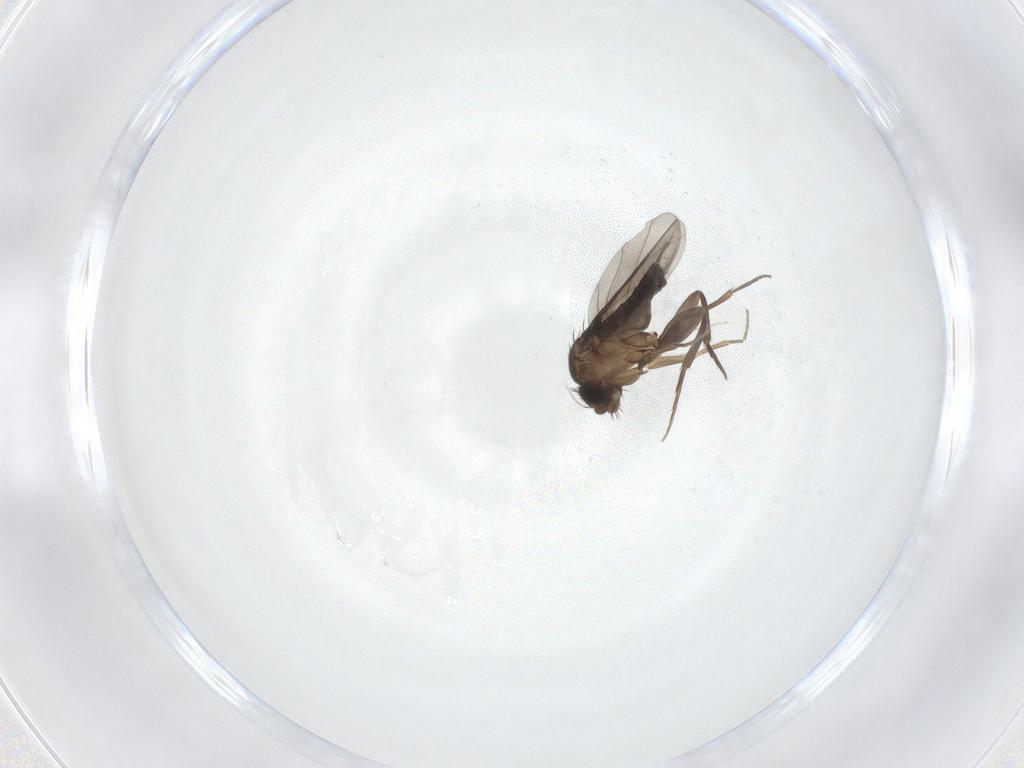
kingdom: Animalia
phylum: Arthropoda
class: Insecta
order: Diptera
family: Phoridae
